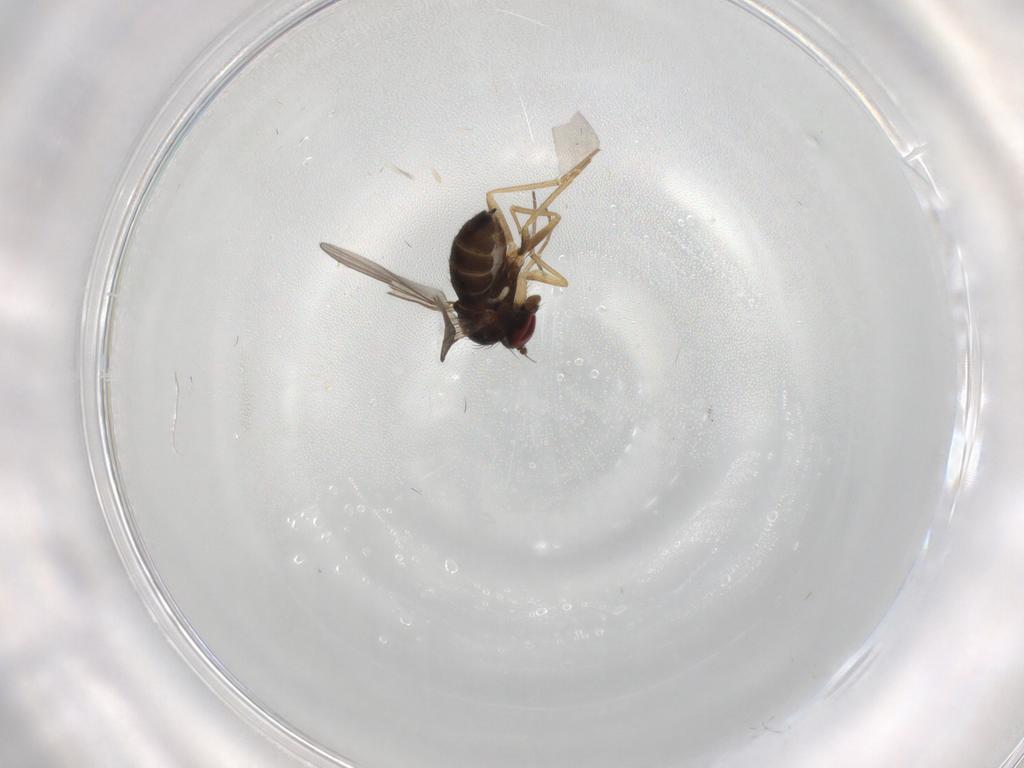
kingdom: Animalia
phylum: Arthropoda
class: Insecta
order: Diptera
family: Dolichopodidae
